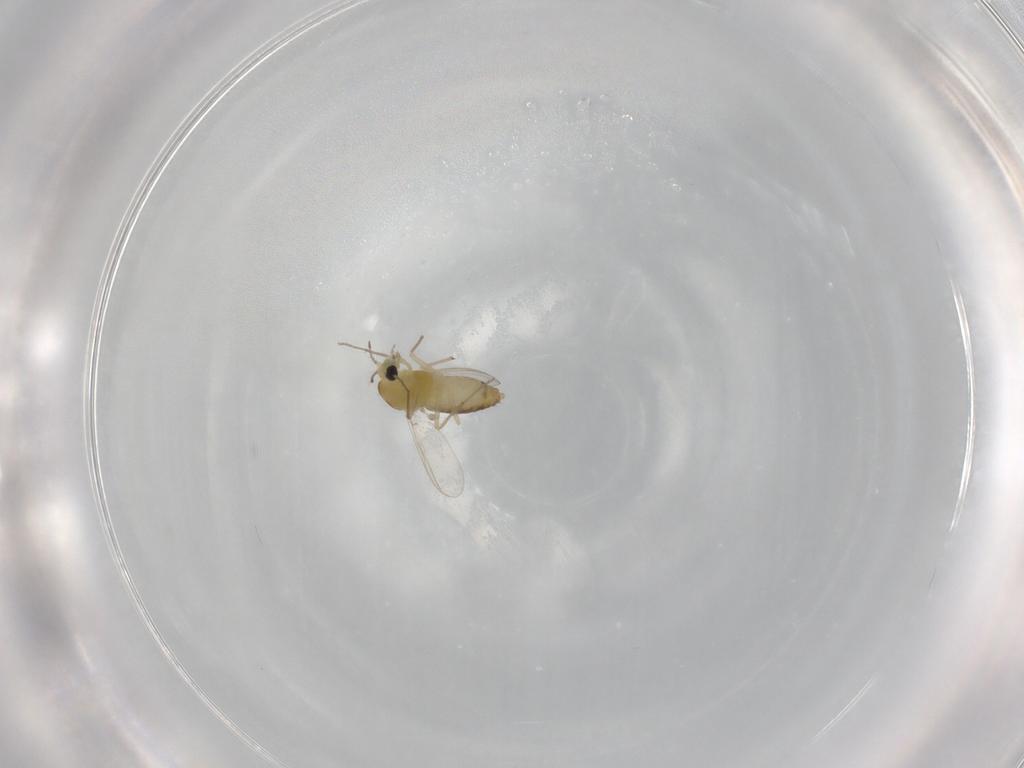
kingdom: Animalia
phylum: Arthropoda
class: Insecta
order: Diptera
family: Chironomidae
